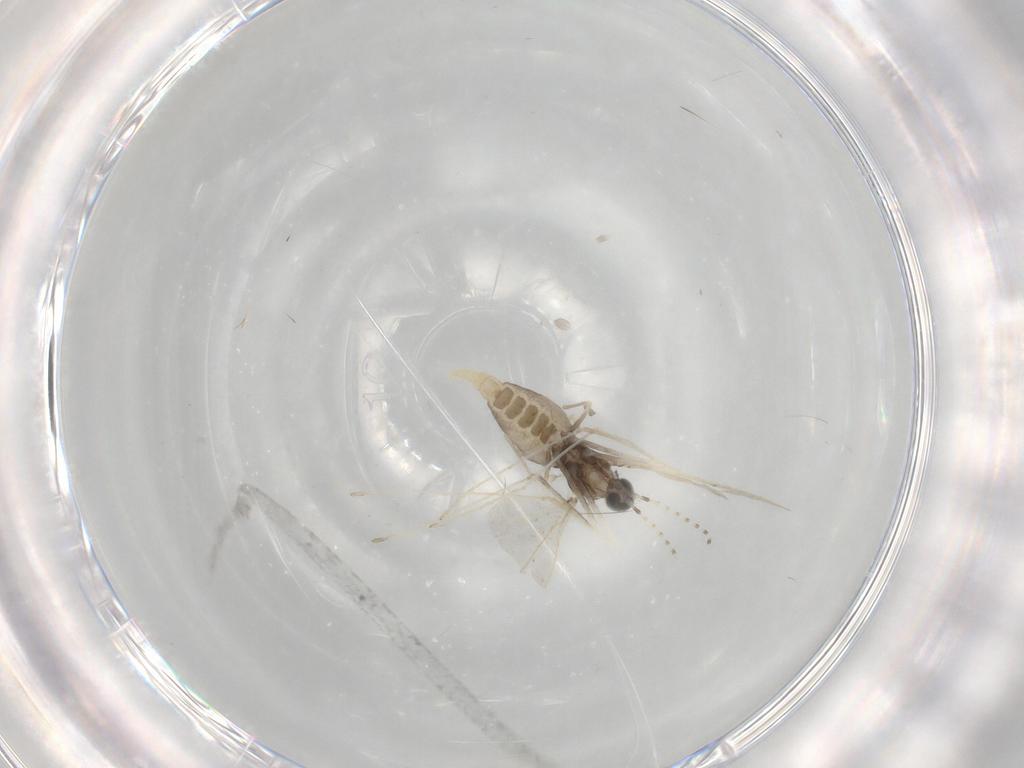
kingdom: Animalia
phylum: Arthropoda
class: Insecta
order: Diptera
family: Cecidomyiidae
